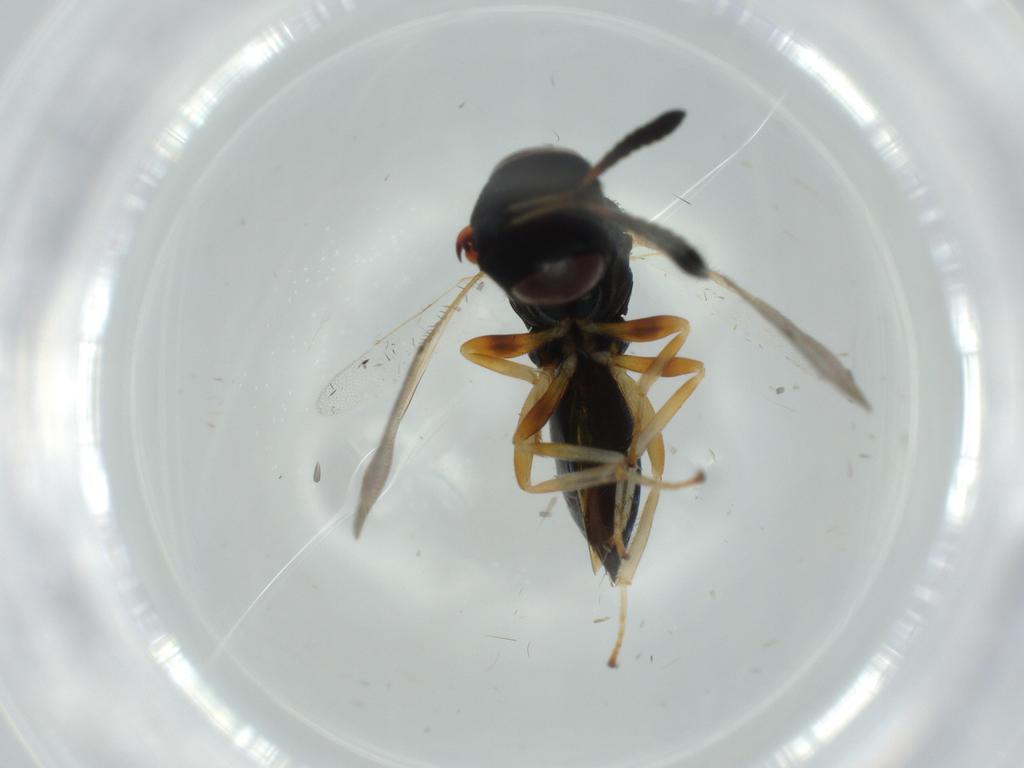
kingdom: Animalia
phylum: Arthropoda
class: Insecta
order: Hymenoptera
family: Agaonidae
